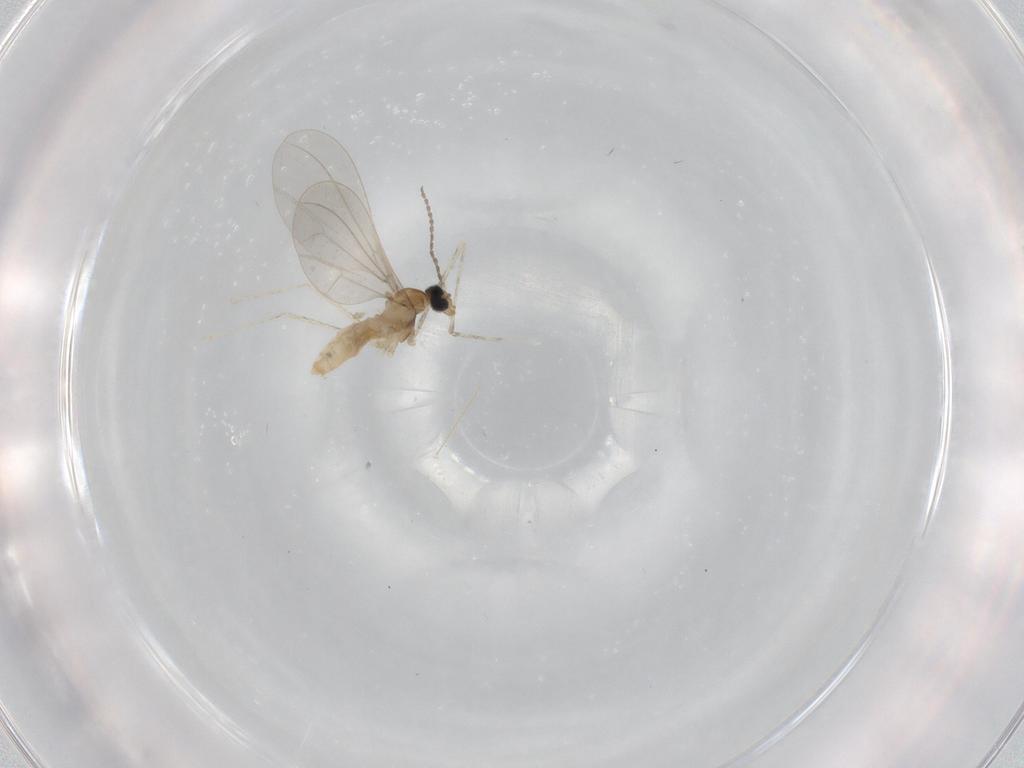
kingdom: Animalia
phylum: Arthropoda
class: Insecta
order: Diptera
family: Cecidomyiidae
